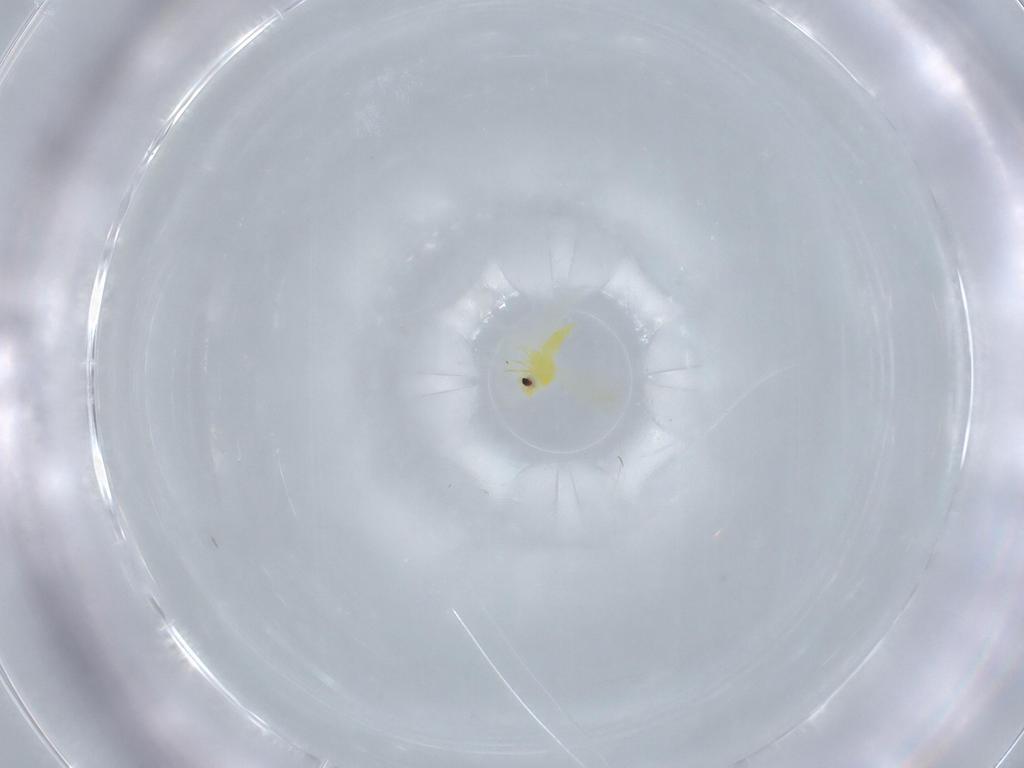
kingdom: Animalia
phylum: Arthropoda
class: Insecta
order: Hemiptera
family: Aleyrodidae
